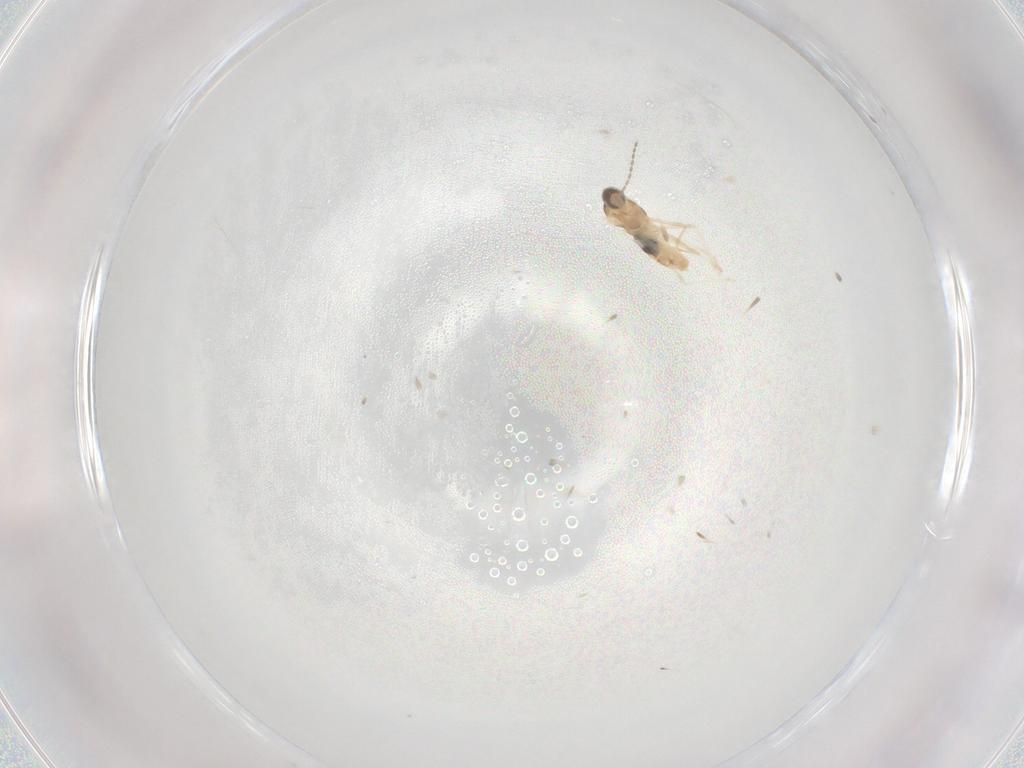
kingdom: Animalia
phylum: Arthropoda
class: Insecta
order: Diptera
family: Cecidomyiidae
